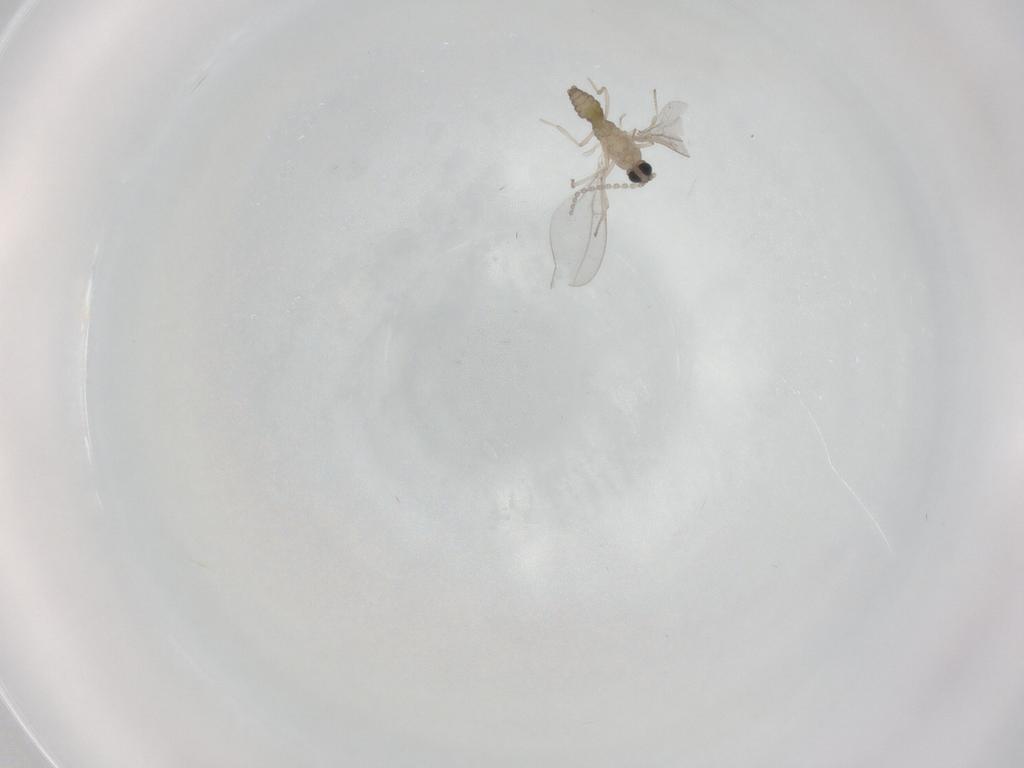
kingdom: Animalia
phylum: Arthropoda
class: Insecta
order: Diptera
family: Cecidomyiidae
